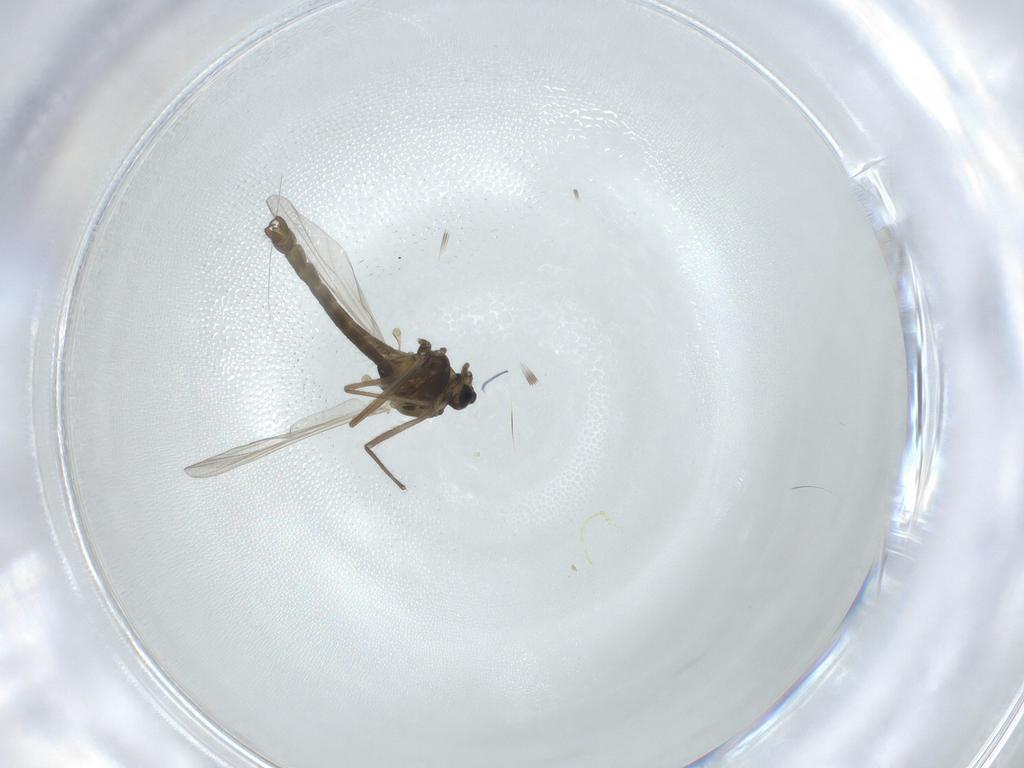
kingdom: Animalia
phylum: Arthropoda
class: Insecta
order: Diptera
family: Chironomidae
